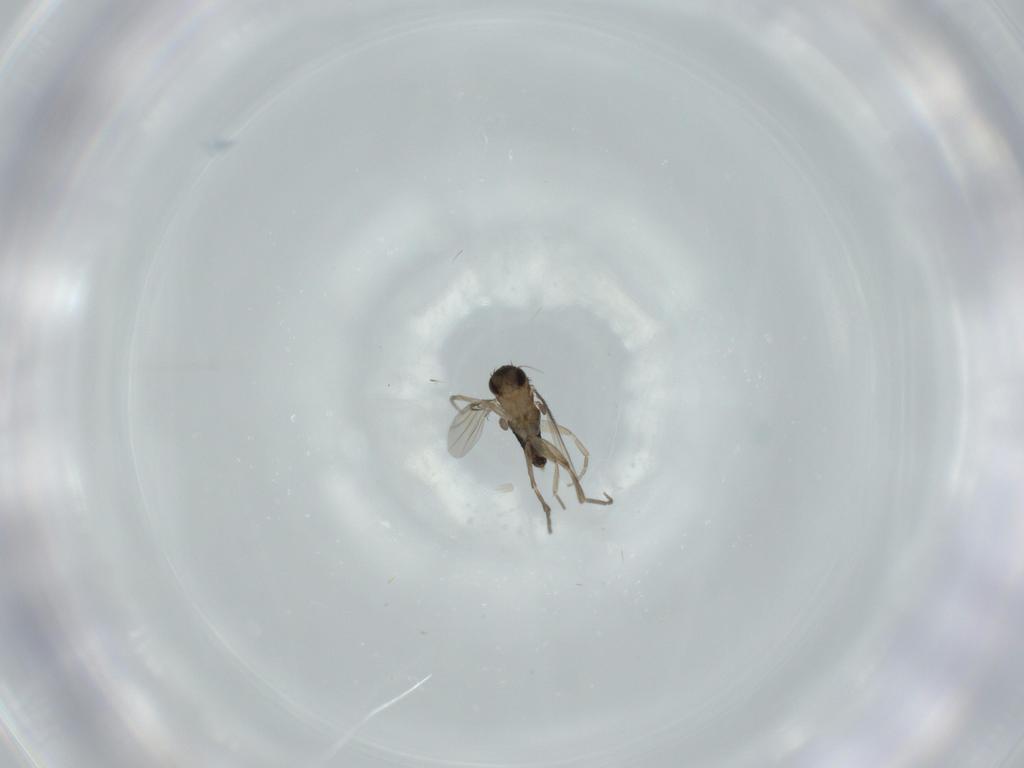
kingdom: Animalia
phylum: Arthropoda
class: Insecta
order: Diptera
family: Phoridae
